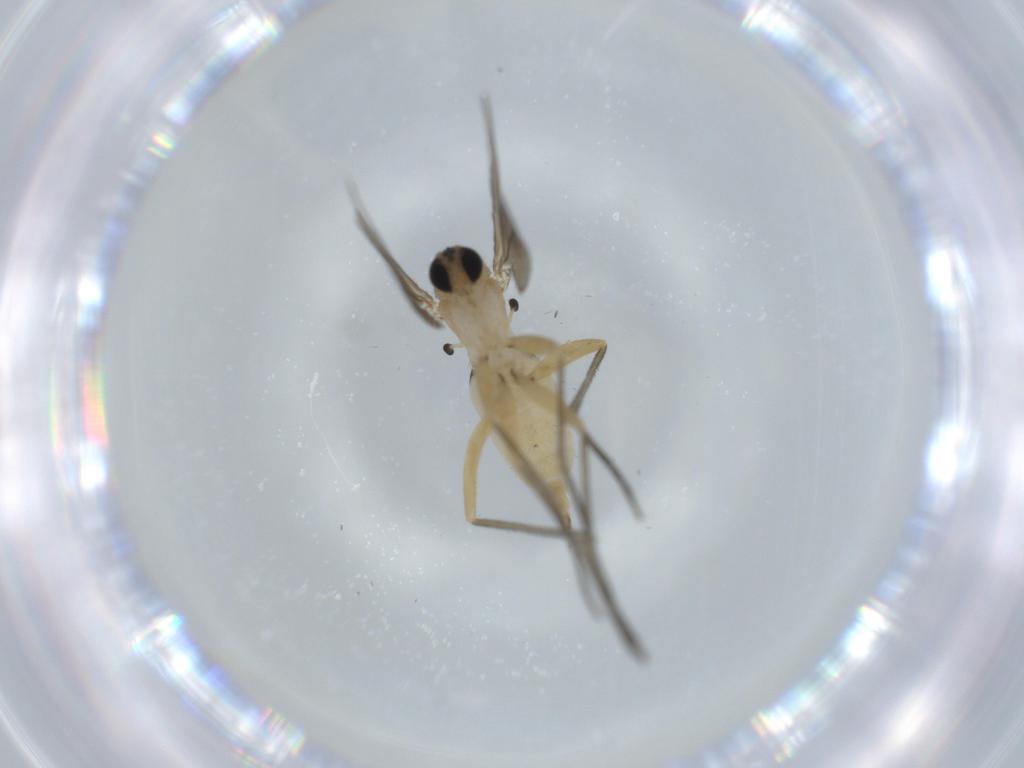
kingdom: Animalia
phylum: Arthropoda
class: Insecta
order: Diptera
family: Sciaridae
